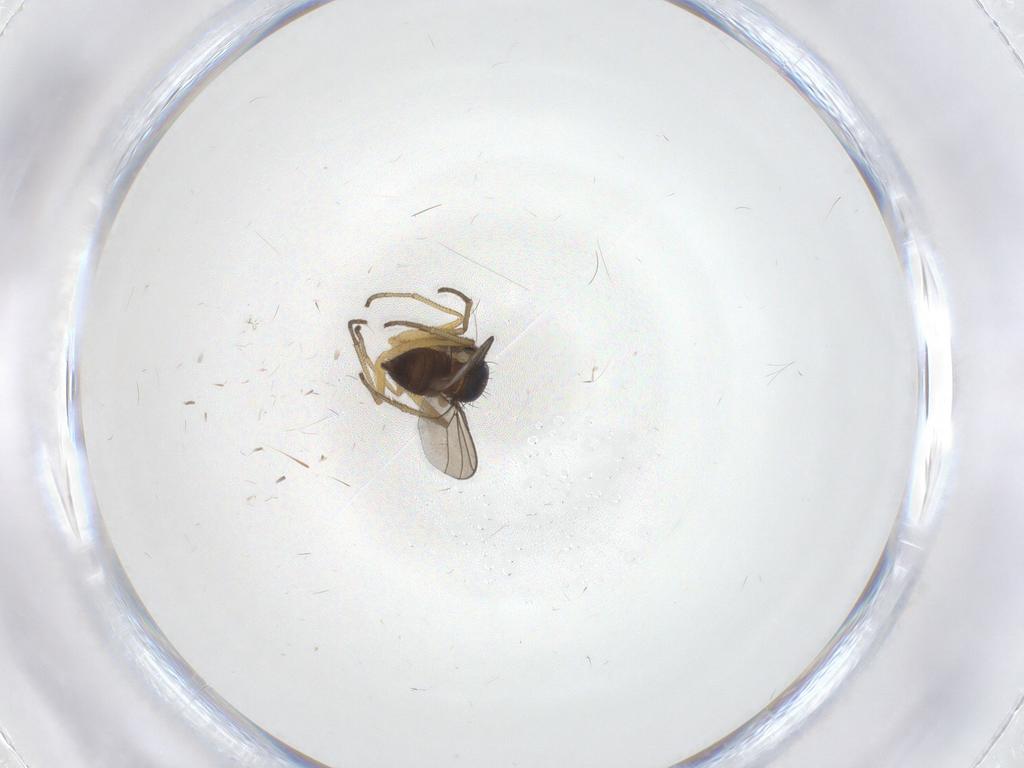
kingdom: Animalia
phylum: Arthropoda
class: Insecta
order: Diptera
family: Dolichopodidae
